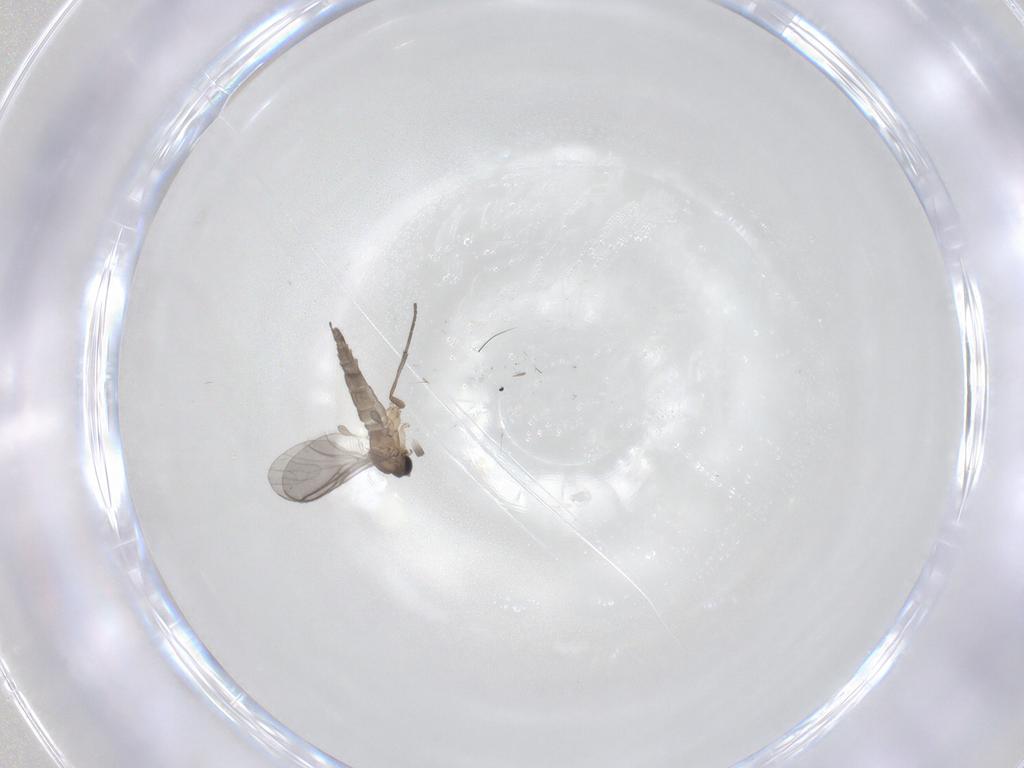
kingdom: Animalia
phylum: Arthropoda
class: Insecta
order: Diptera
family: Sciaridae
